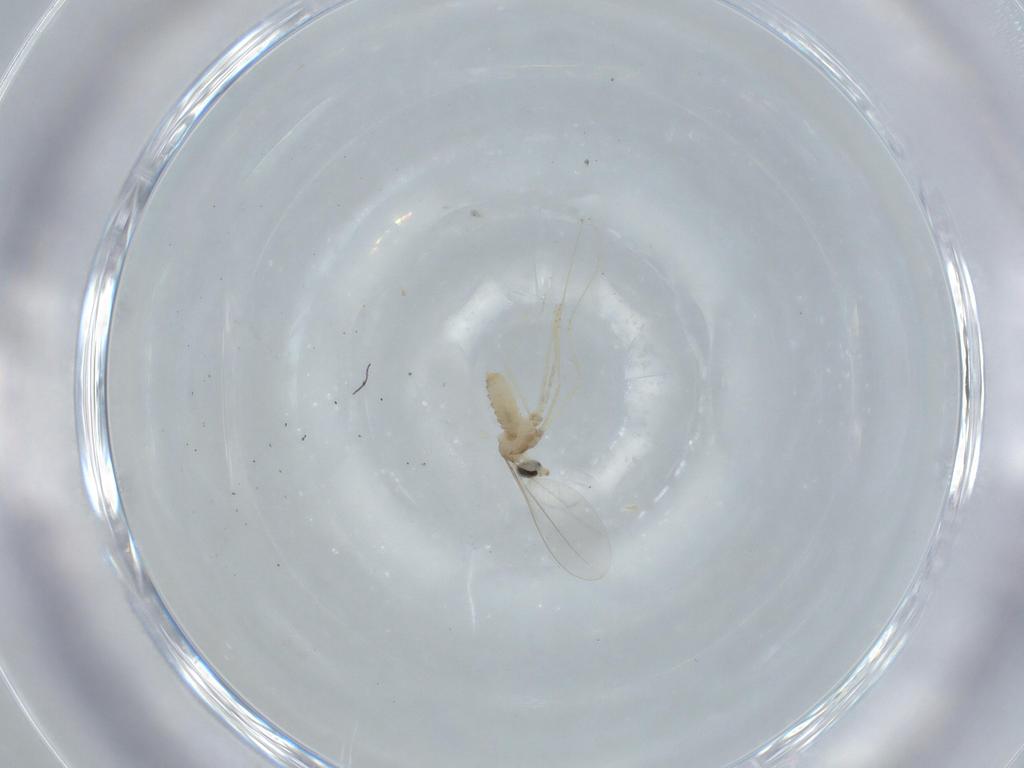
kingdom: Animalia
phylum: Arthropoda
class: Insecta
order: Diptera
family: Cecidomyiidae
